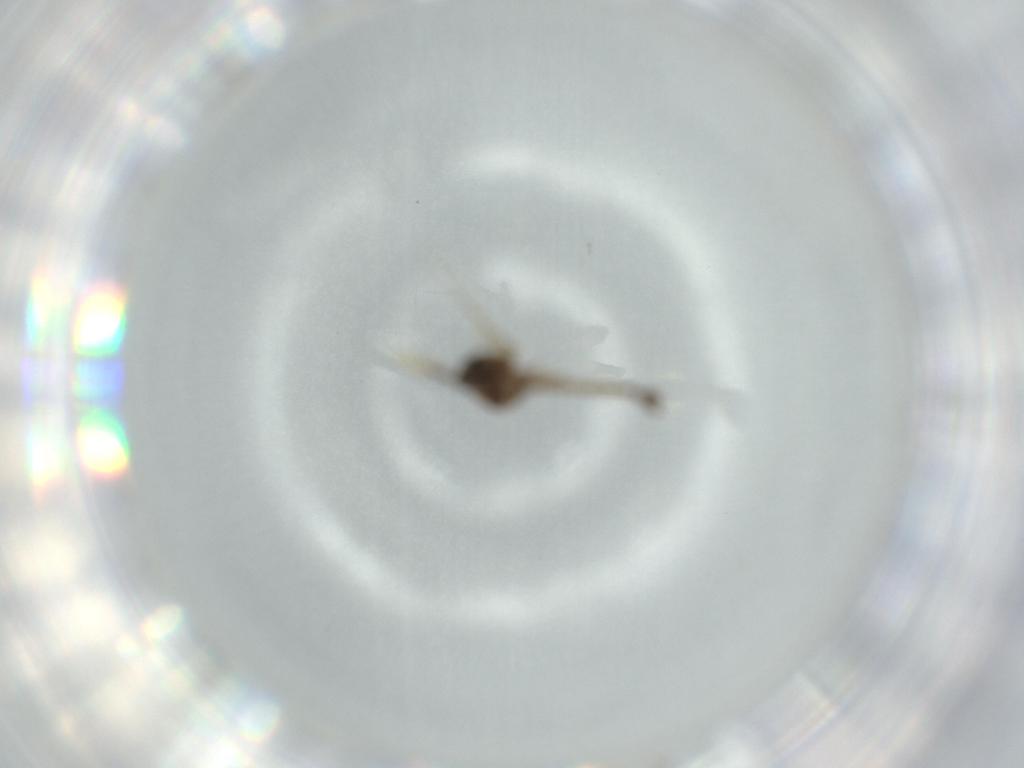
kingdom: Animalia
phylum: Arthropoda
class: Insecta
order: Diptera
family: Ceratopogonidae
